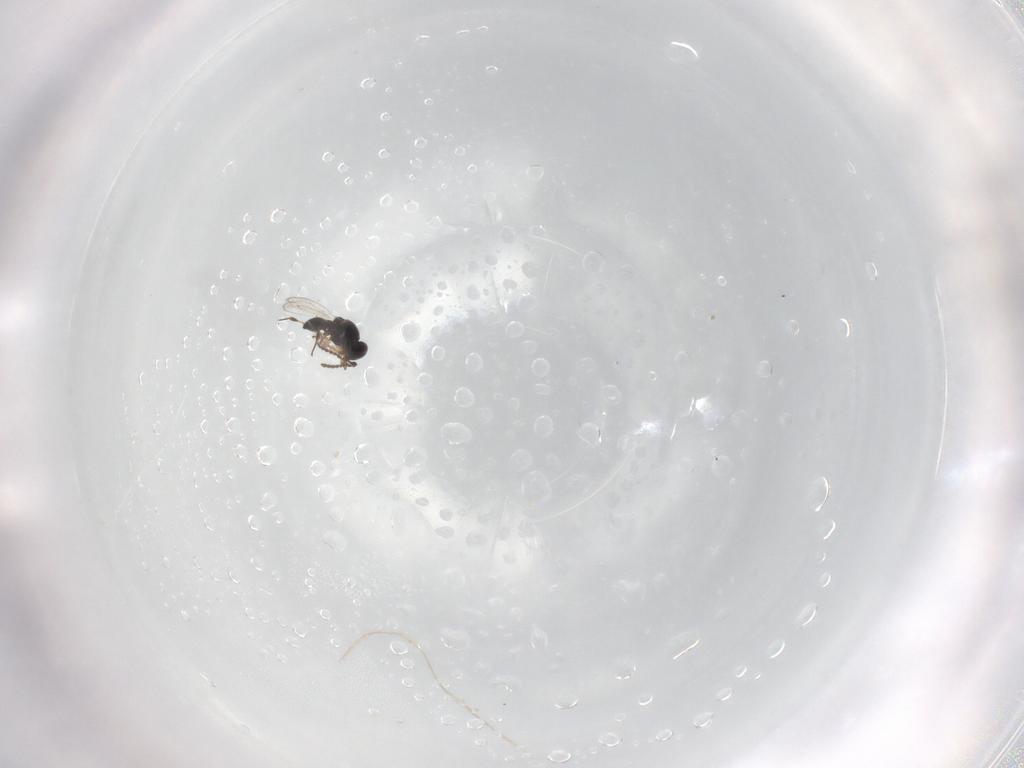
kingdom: Animalia
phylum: Arthropoda
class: Insecta
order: Hymenoptera
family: Platygastridae
